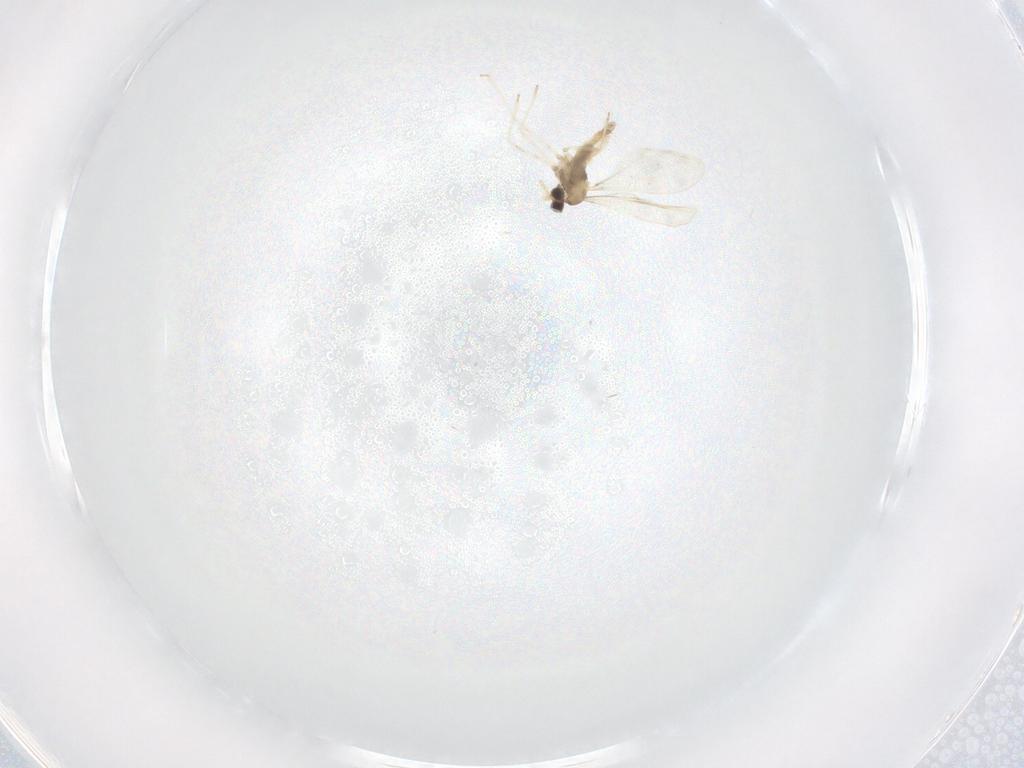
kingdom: Animalia
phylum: Arthropoda
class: Insecta
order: Diptera
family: Cecidomyiidae
